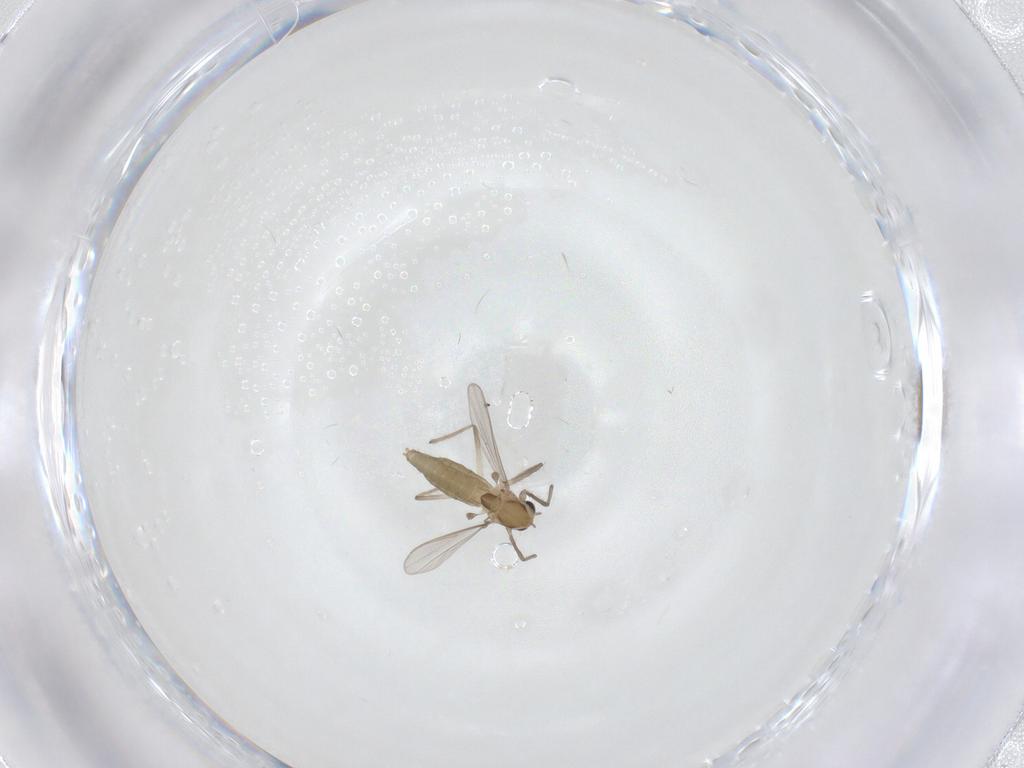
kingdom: Animalia
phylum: Arthropoda
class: Insecta
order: Diptera
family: Chironomidae
